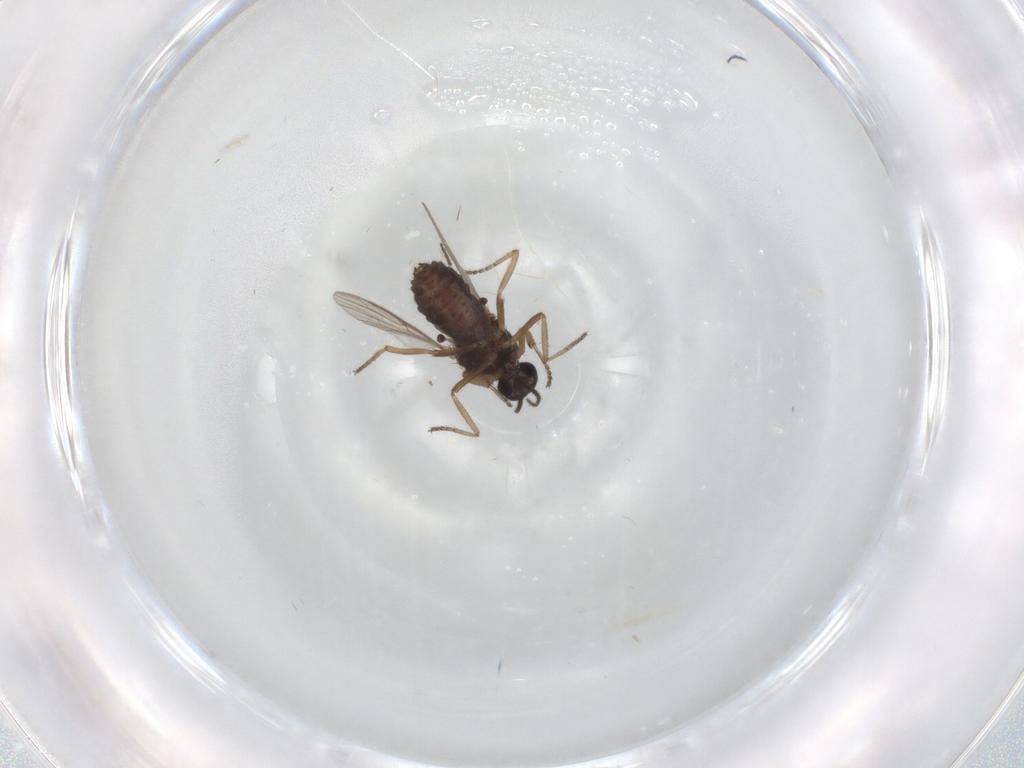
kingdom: Animalia
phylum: Arthropoda
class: Insecta
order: Diptera
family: Ceratopogonidae
